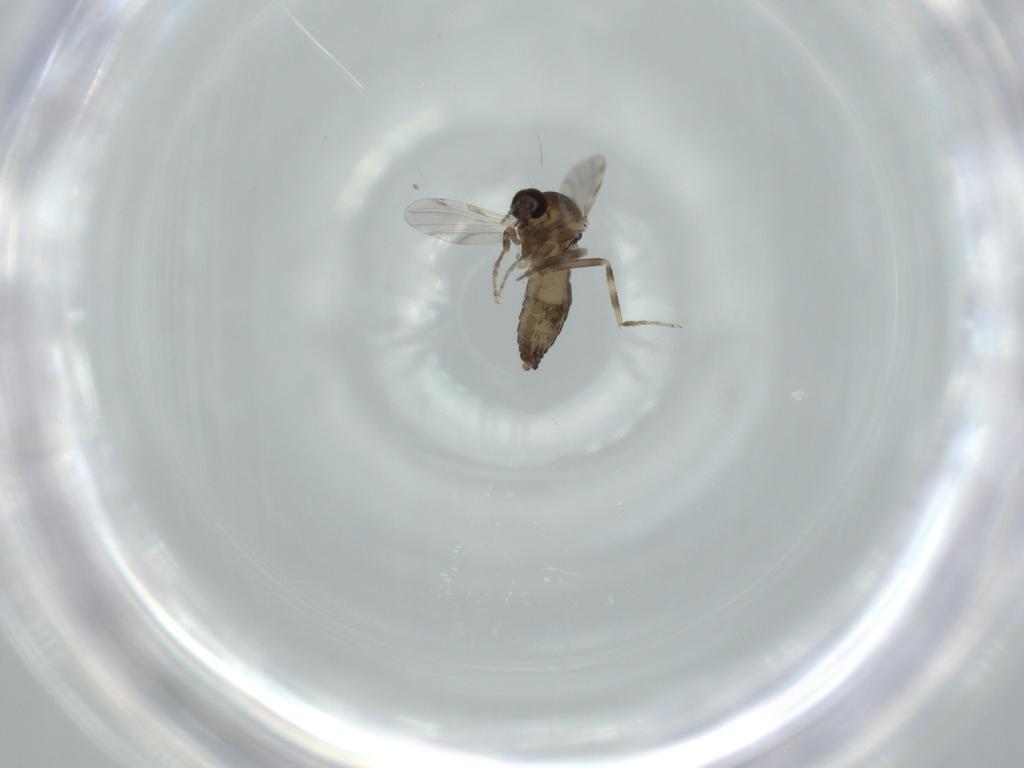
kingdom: Animalia
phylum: Arthropoda
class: Insecta
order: Diptera
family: Ceratopogonidae
